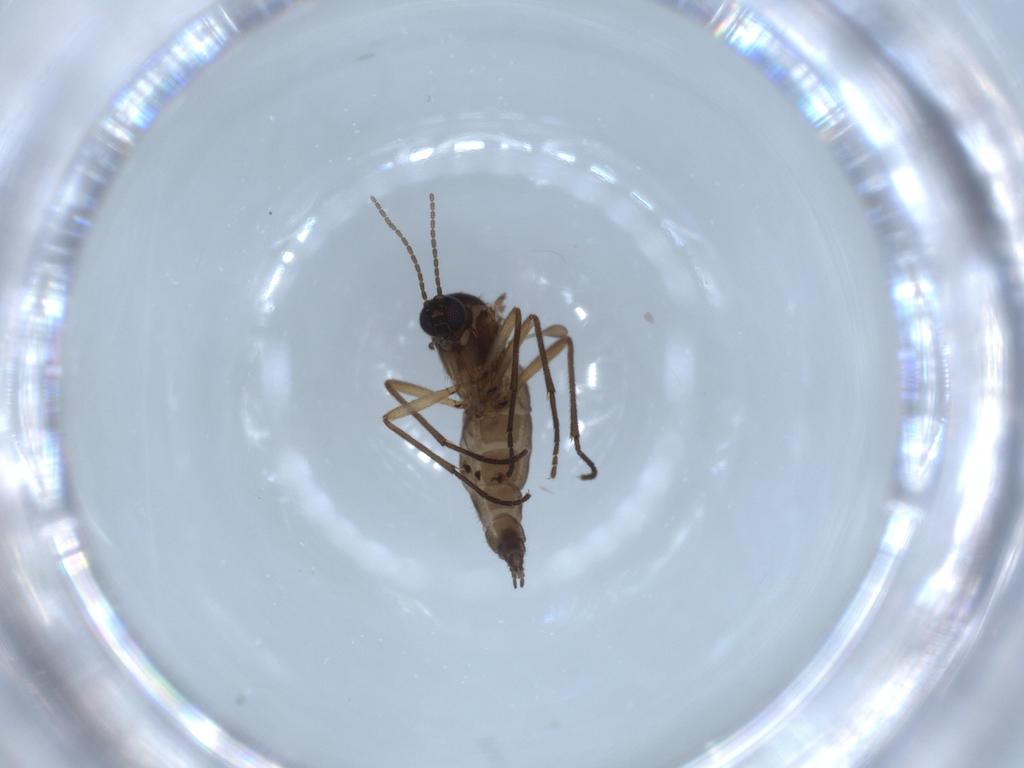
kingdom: Animalia
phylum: Arthropoda
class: Insecta
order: Diptera
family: Sciaridae
